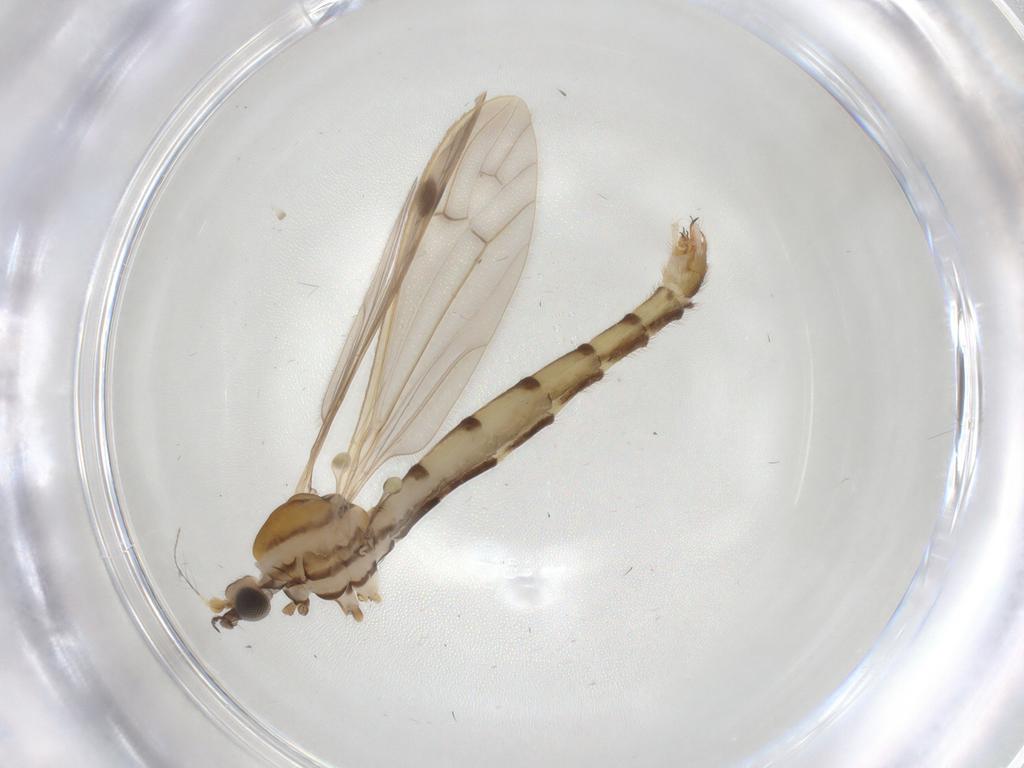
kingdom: Animalia
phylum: Arthropoda
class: Insecta
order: Diptera
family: Phoridae
